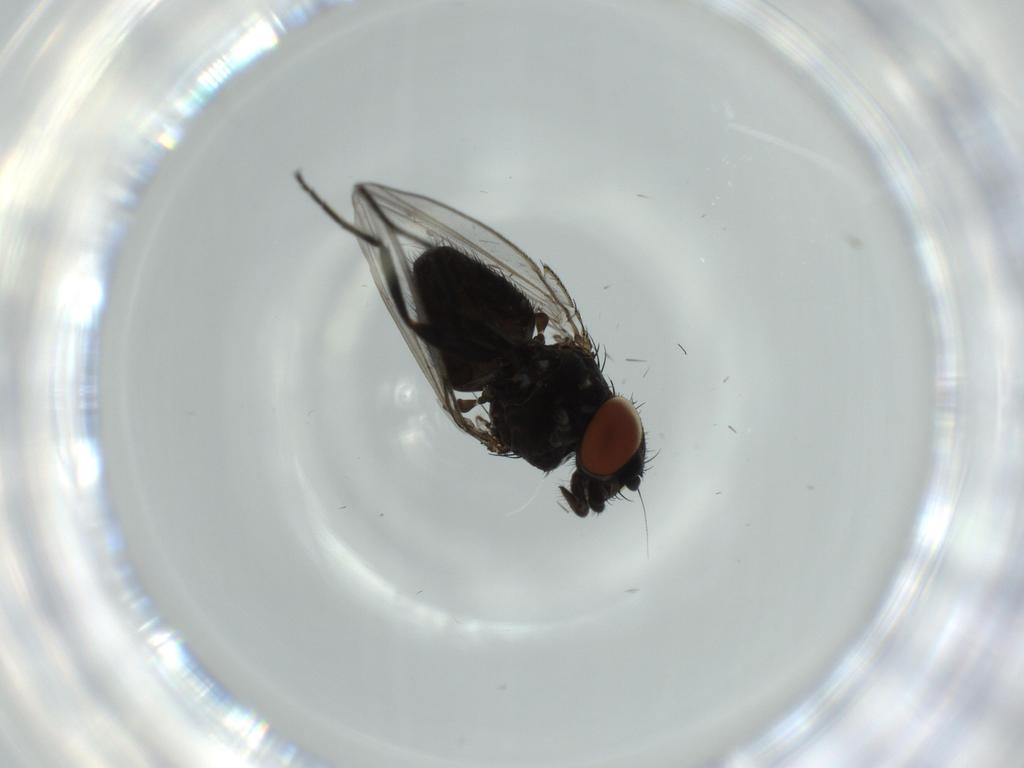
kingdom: Animalia
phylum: Arthropoda
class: Insecta
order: Diptera
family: Milichiidae
